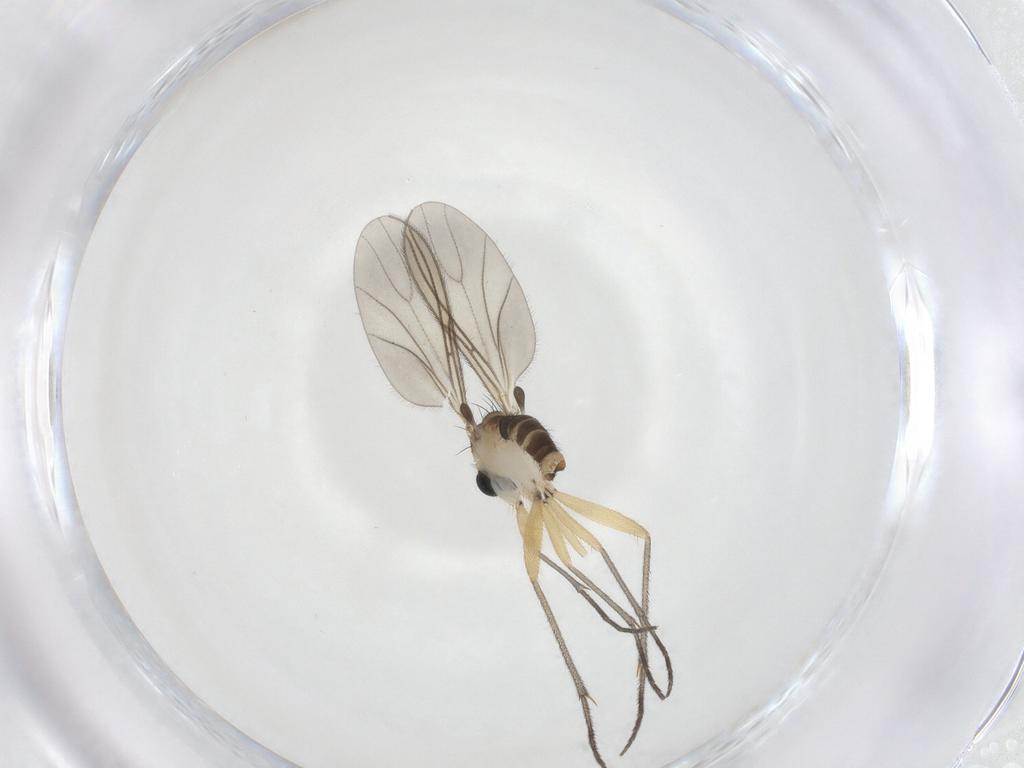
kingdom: Animalia
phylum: Arthropoda
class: Insecta
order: Diptera
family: Sciaridae
